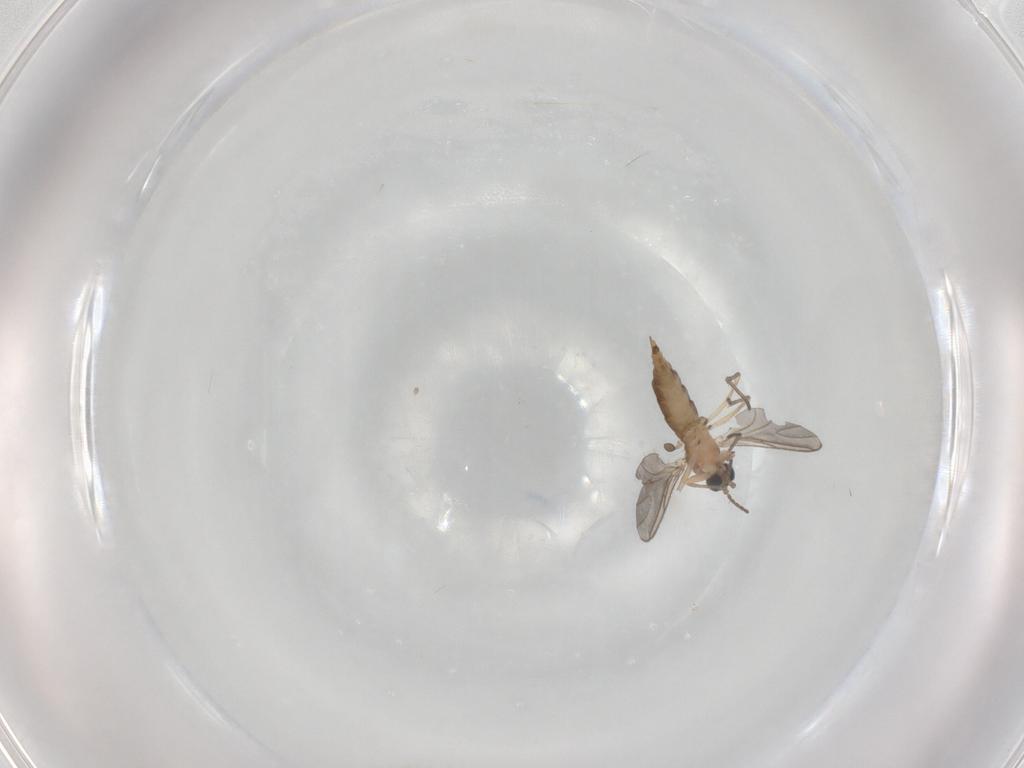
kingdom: Animalia
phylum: Arthropoda
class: Insecta
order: Diptera
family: Sciaridae
